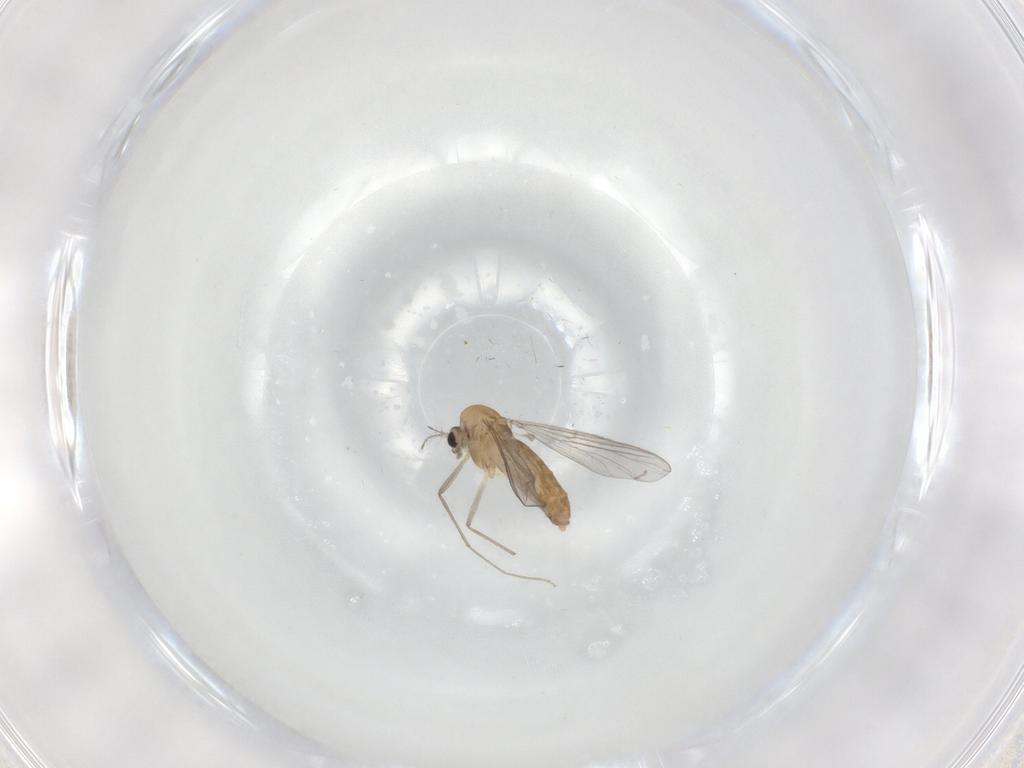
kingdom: Animalia
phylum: Arthropoda
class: Insecta
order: Diptera
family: Chironomidae
